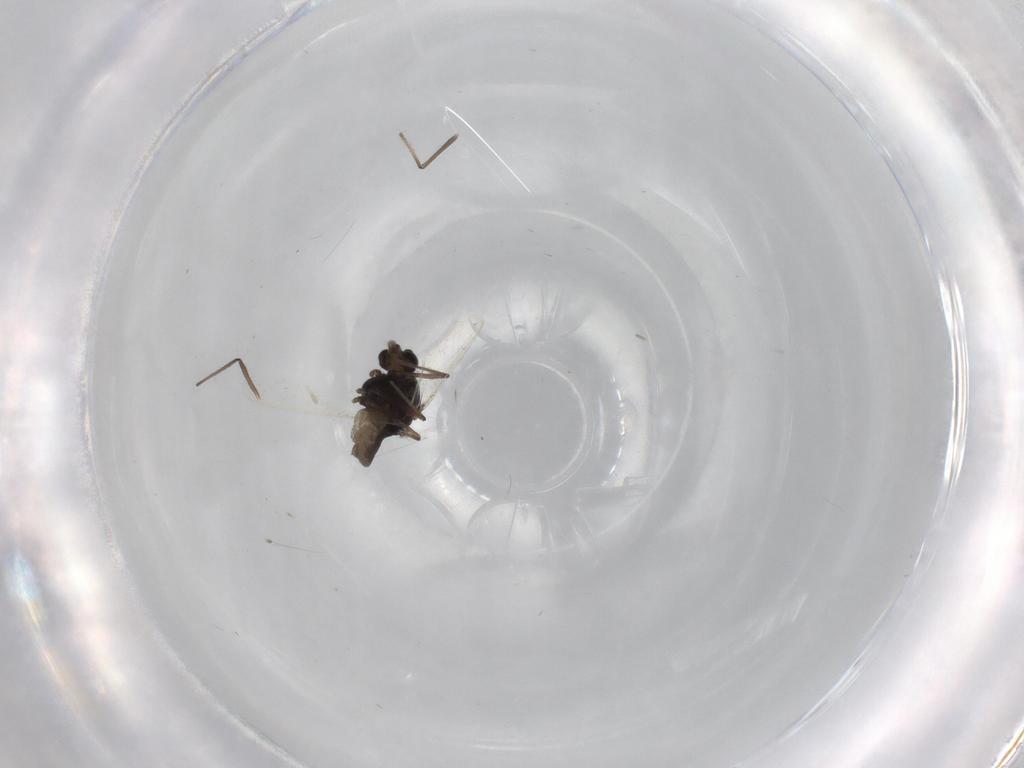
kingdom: Animalia
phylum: Arthropoda
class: Insecta
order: Diptera
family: Chironomidae
